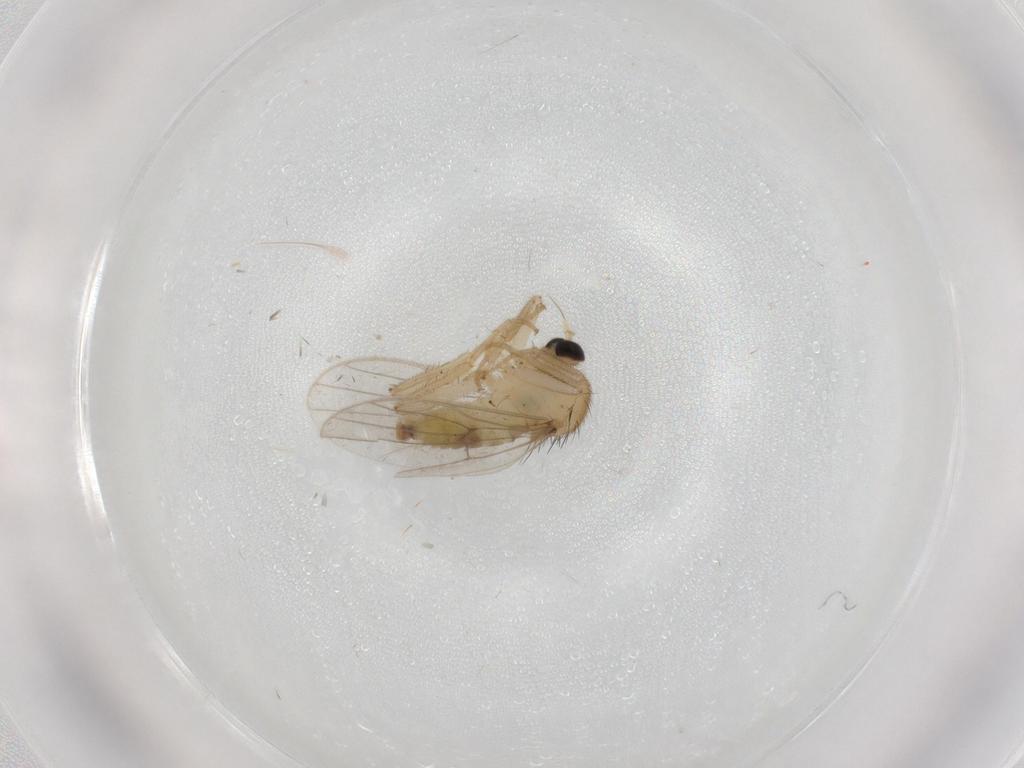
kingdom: Animalia
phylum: Arthropoda
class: Insecta
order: Diptera
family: Hybotidae
